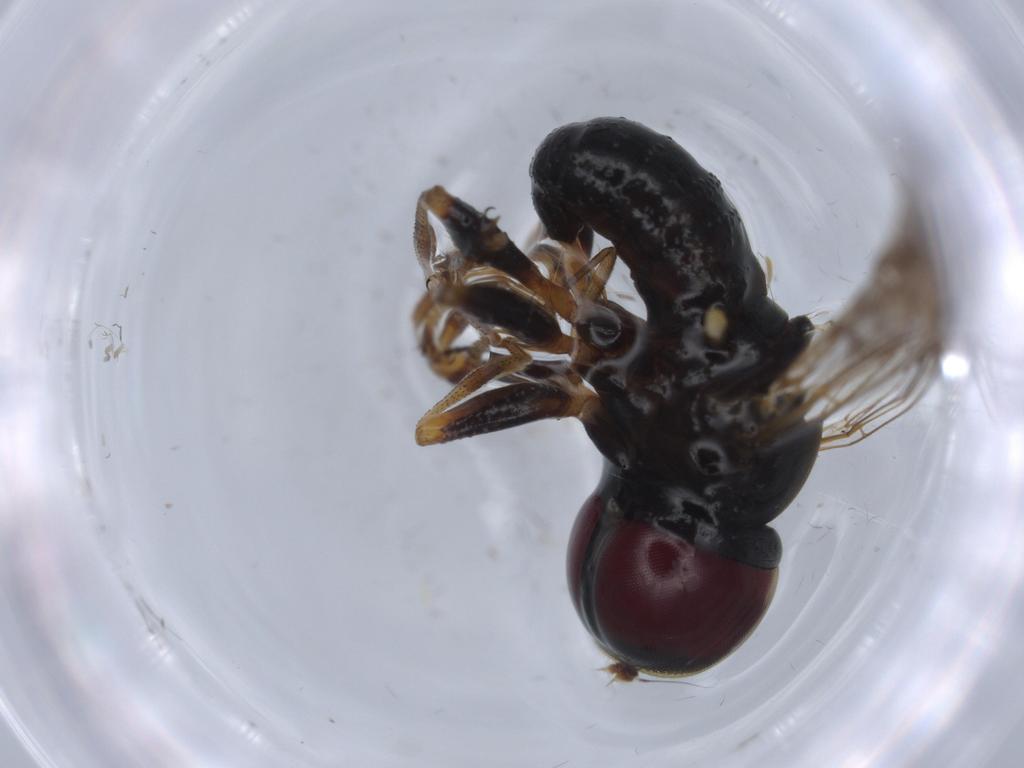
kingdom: Animalia
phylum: Arthropoda
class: Insecta
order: Diptera
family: Pipunculidae
